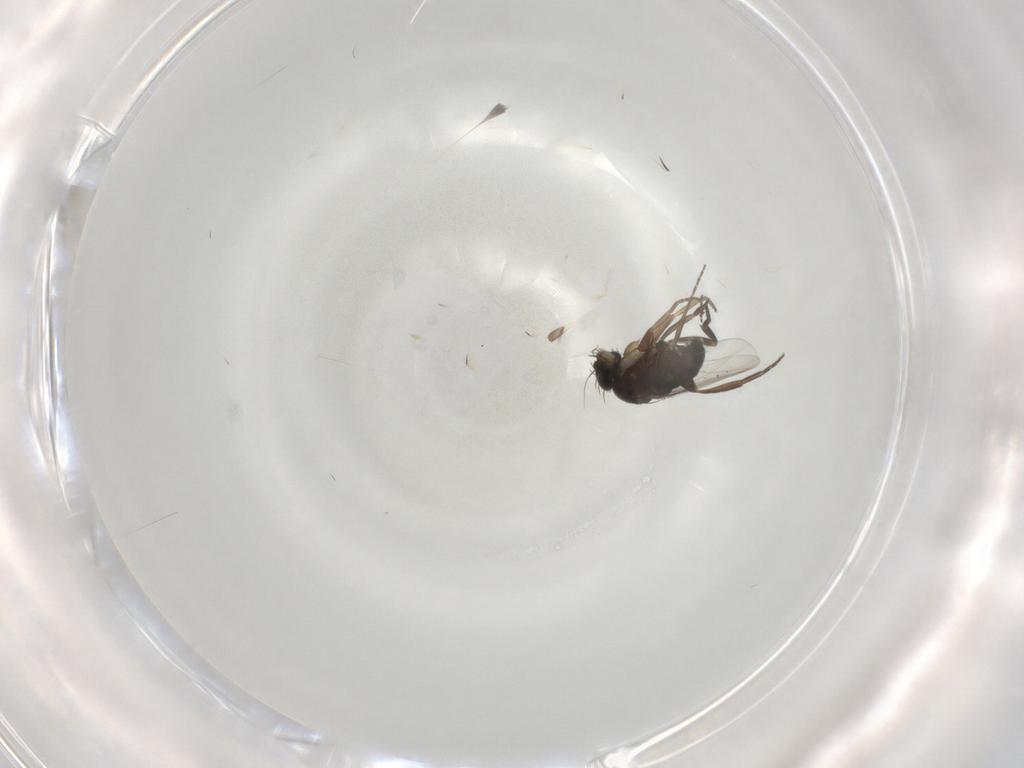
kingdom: Animalia
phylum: Arthropoda
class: Insecta
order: Diptera
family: Phoridae
